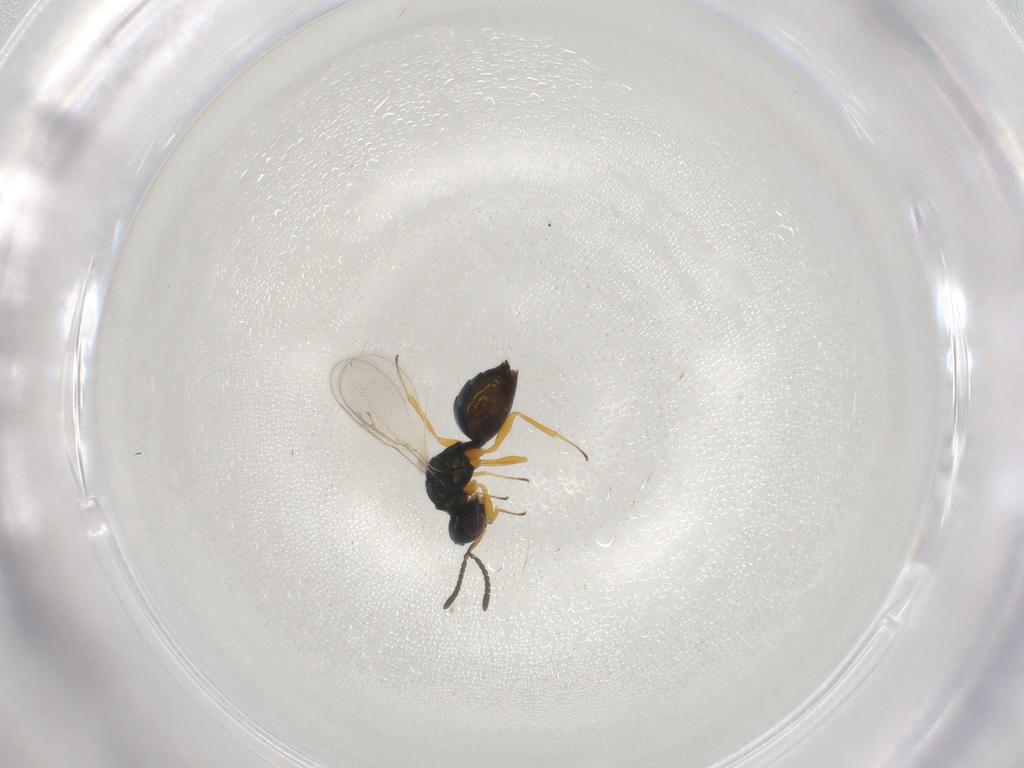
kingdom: Animalia
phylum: Arthropoda
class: Insecta
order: Hymenoptera
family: Pteromalidae
